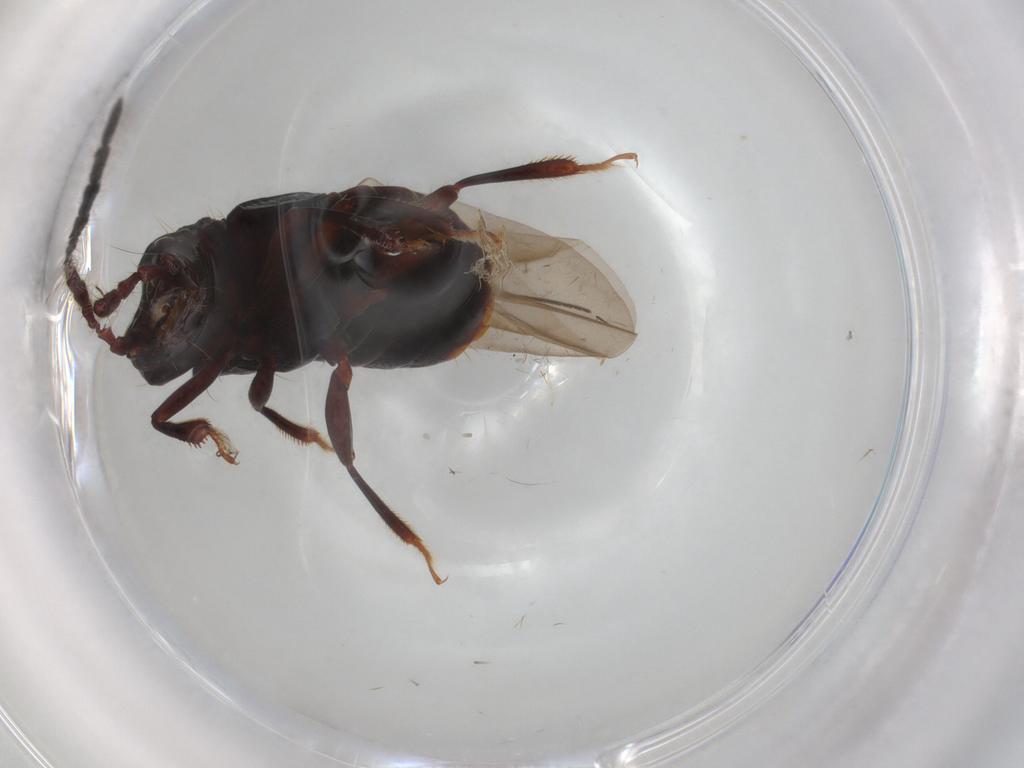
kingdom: Animalia
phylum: Arthropoda
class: Insecta
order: Coleoptera
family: Staphylinidae
